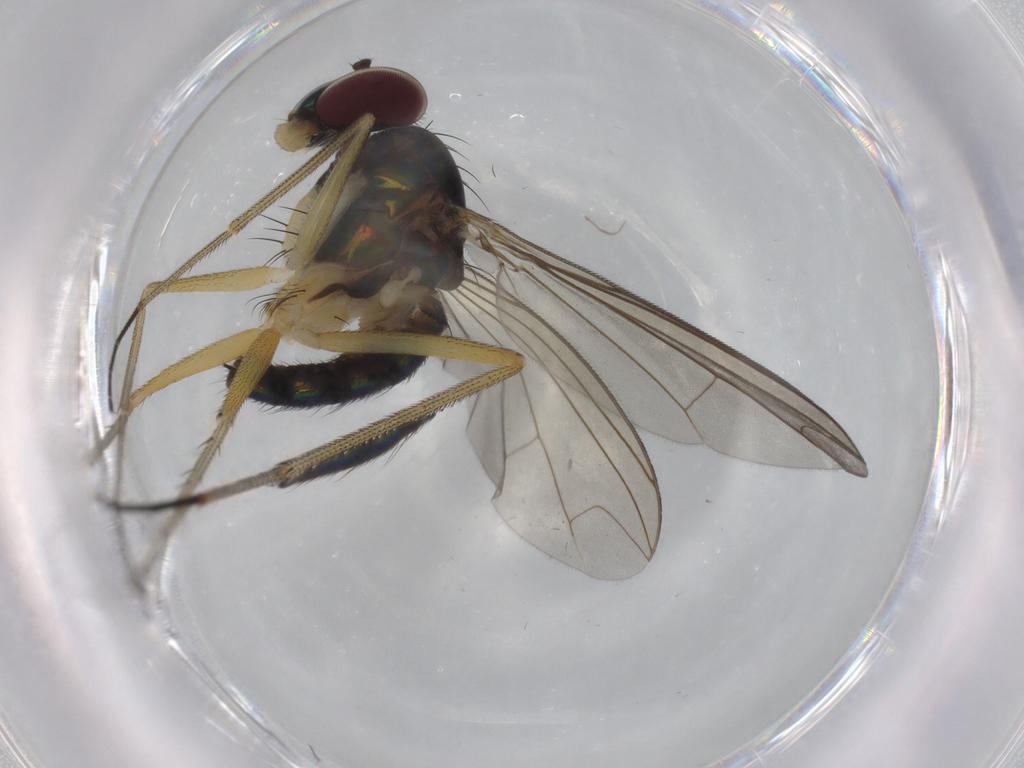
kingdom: Animalia
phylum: Arthropoda
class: Insecta
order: Diptera
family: Dolichopodidae
